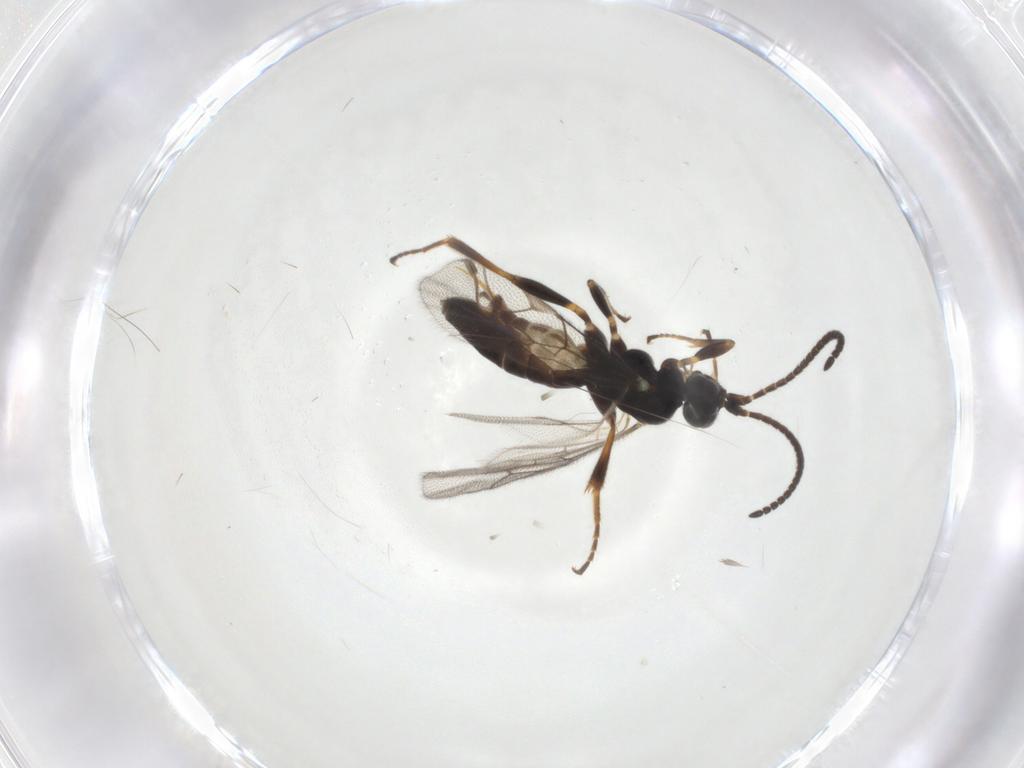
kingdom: Animalia
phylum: Arthropoda
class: Insecta
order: Hymenoptera
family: Ichneumonidae
